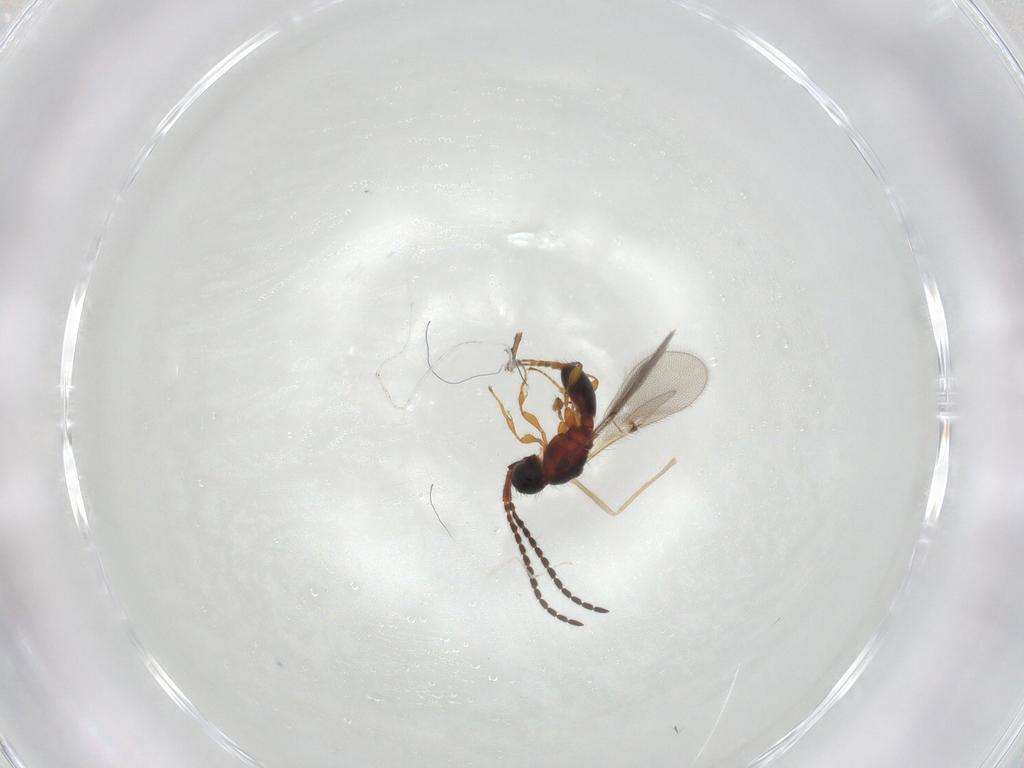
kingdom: Animalia
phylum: Arthropoda
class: Insecta
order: Hymenoptera
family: Diapriidae
